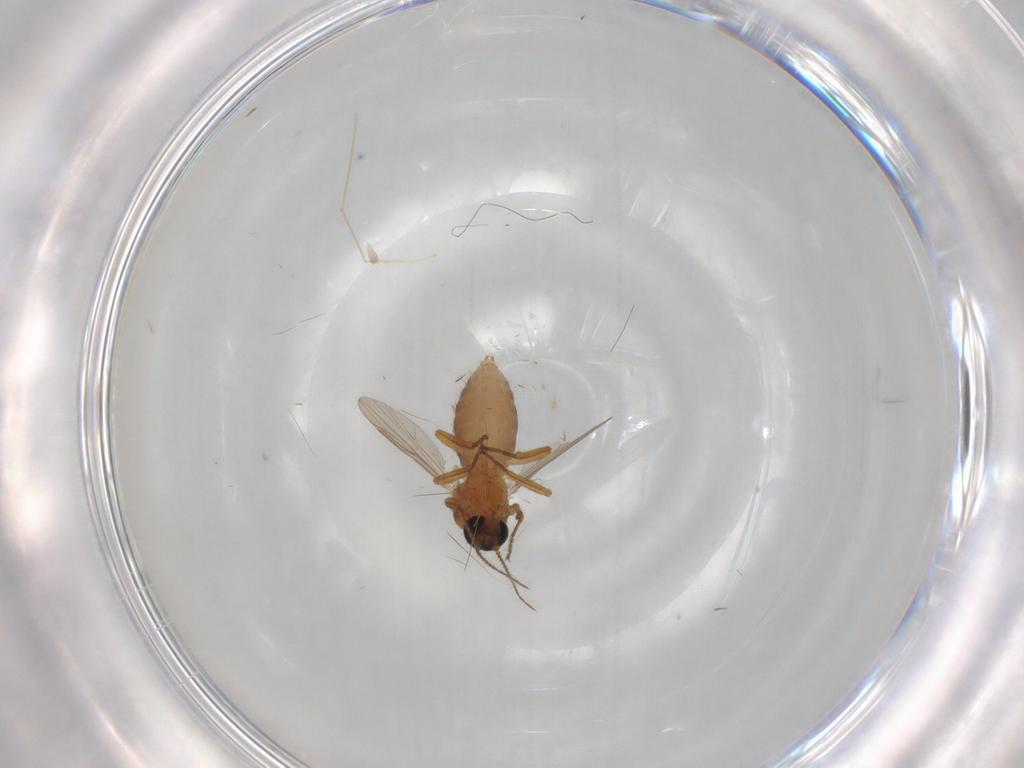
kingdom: Animalia
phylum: Arthropoda
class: Insecta
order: Diptera
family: Cecidomyiidae
